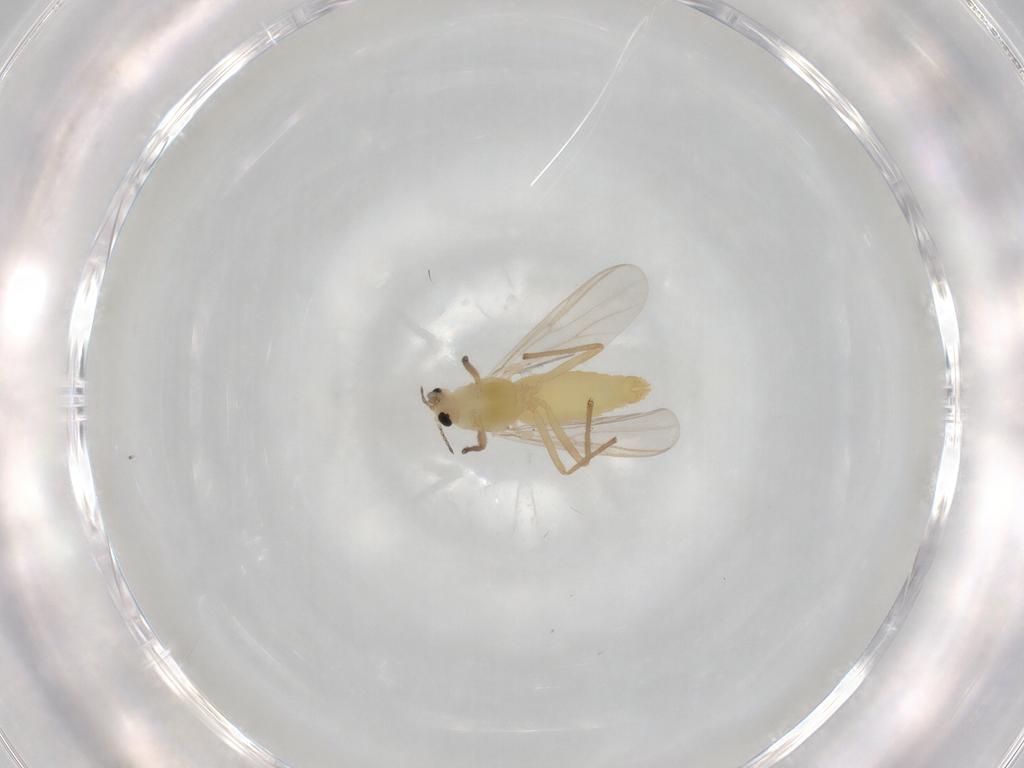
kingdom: Animalia
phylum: Arthropoda
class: Insecta
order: Diptera
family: Chironomidae
